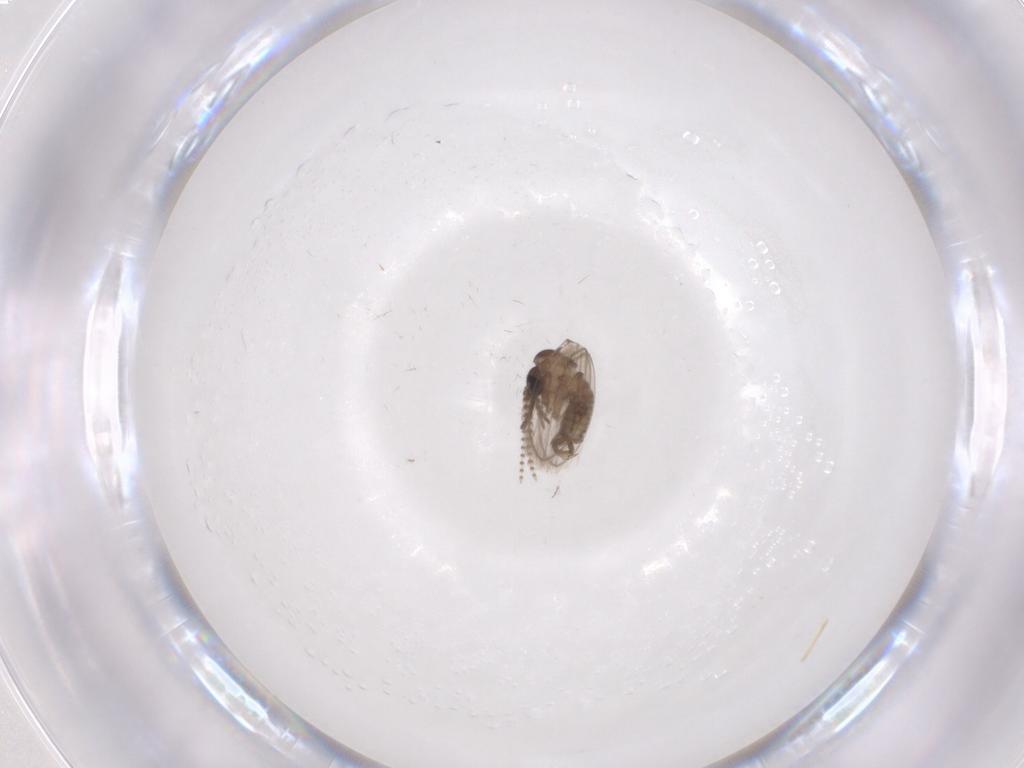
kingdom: Animalia
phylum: Arthropoda
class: Insecta
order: Diptera
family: Psychodidae
